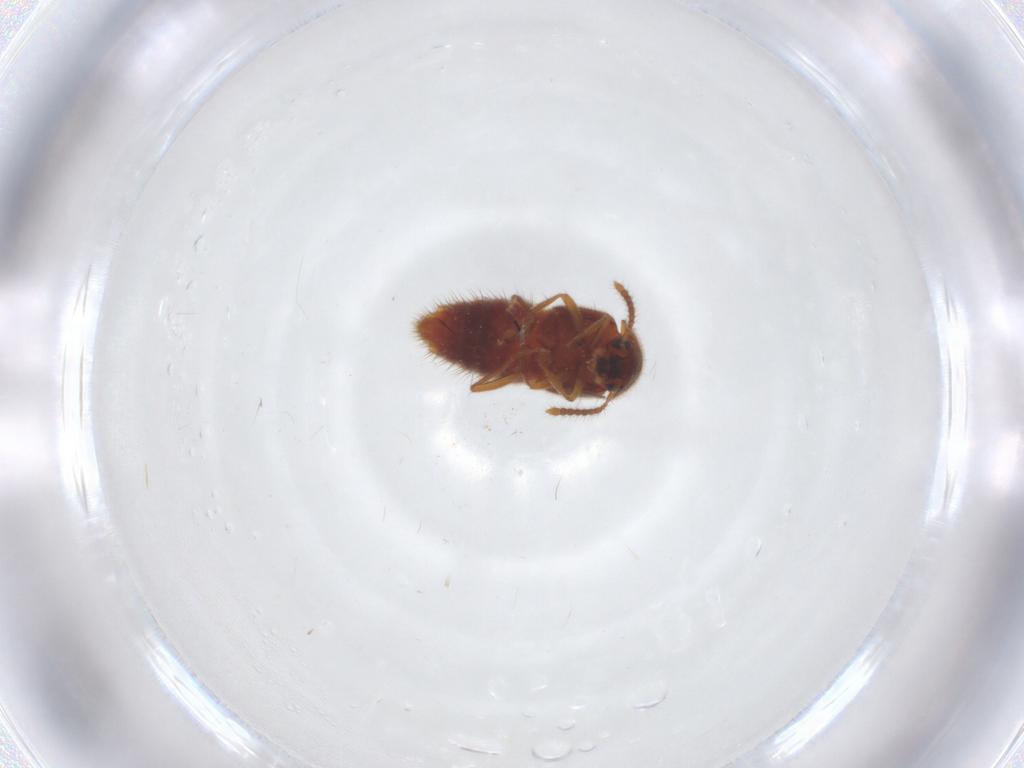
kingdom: Animalia
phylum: Arthropoda
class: Insecta
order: Coleoptera
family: Staphylinidae
